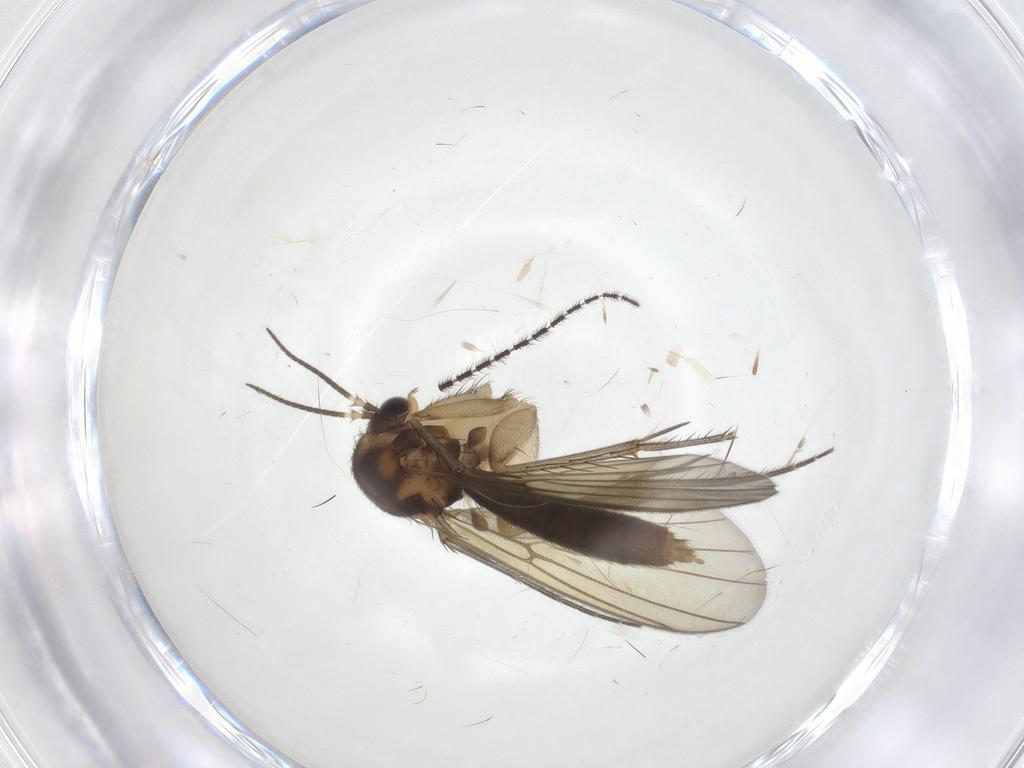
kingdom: Animalia
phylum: Arthropoda
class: Insecta
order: Diptera
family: Mycetophilidae
